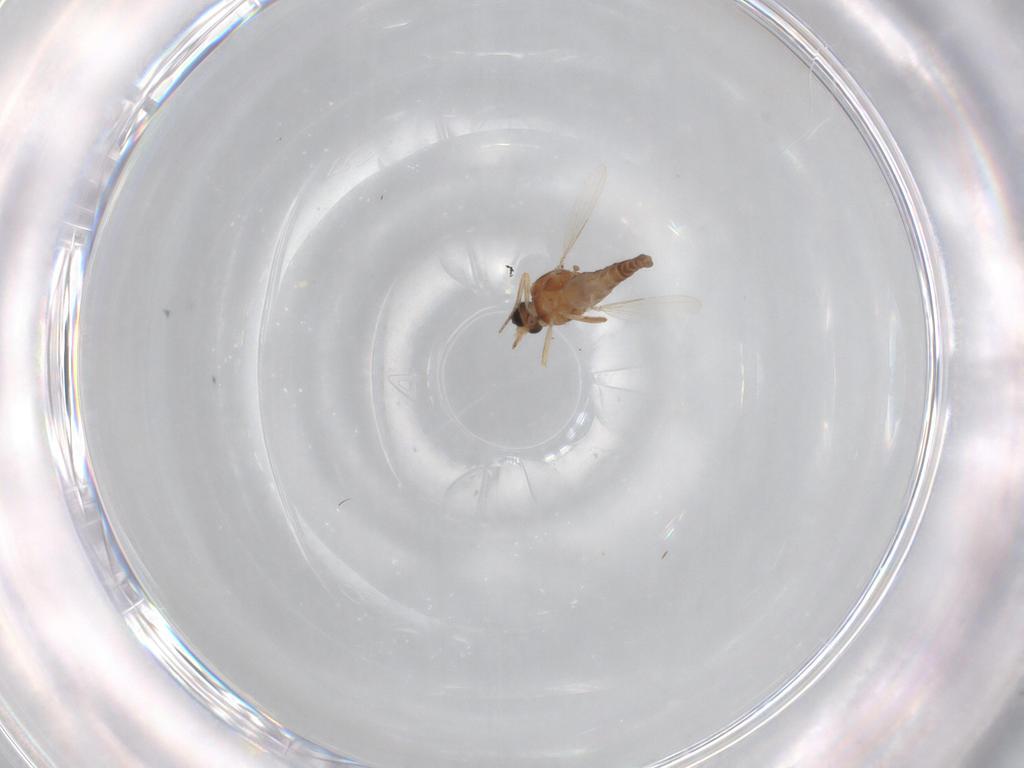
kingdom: Animalia
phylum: Arthropoda
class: Insecta
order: Diptera
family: Ceratopogonidae
